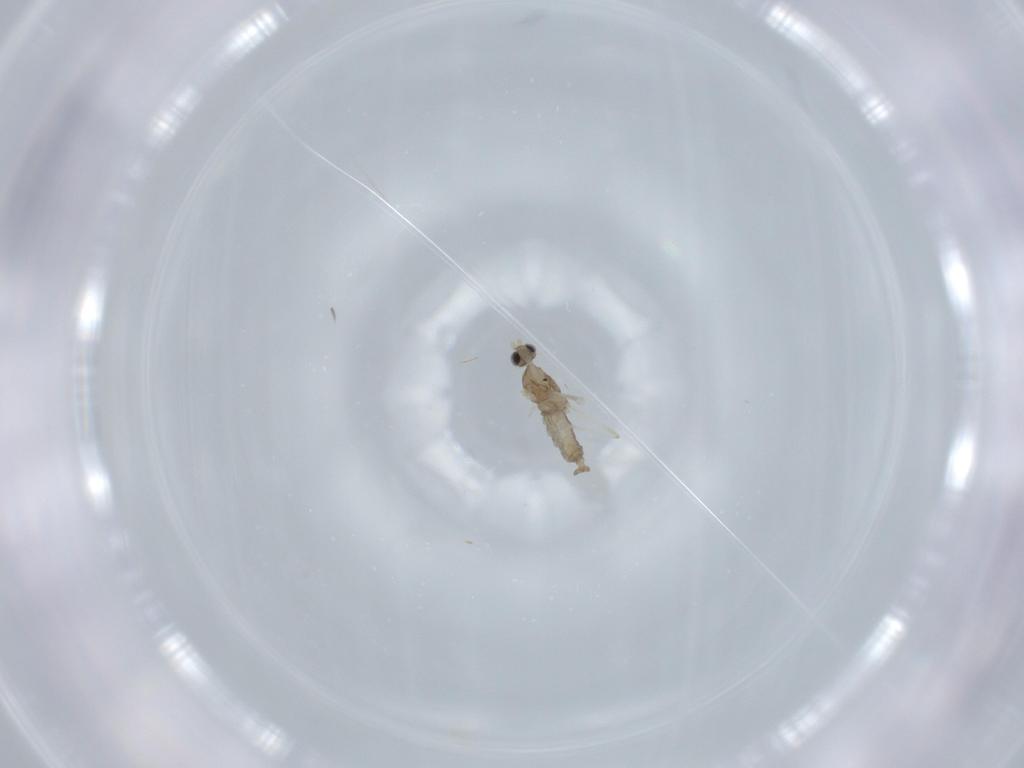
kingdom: Animalia
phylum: Arthropoda
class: Insecta
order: Diptera
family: Cecidomyiidae
